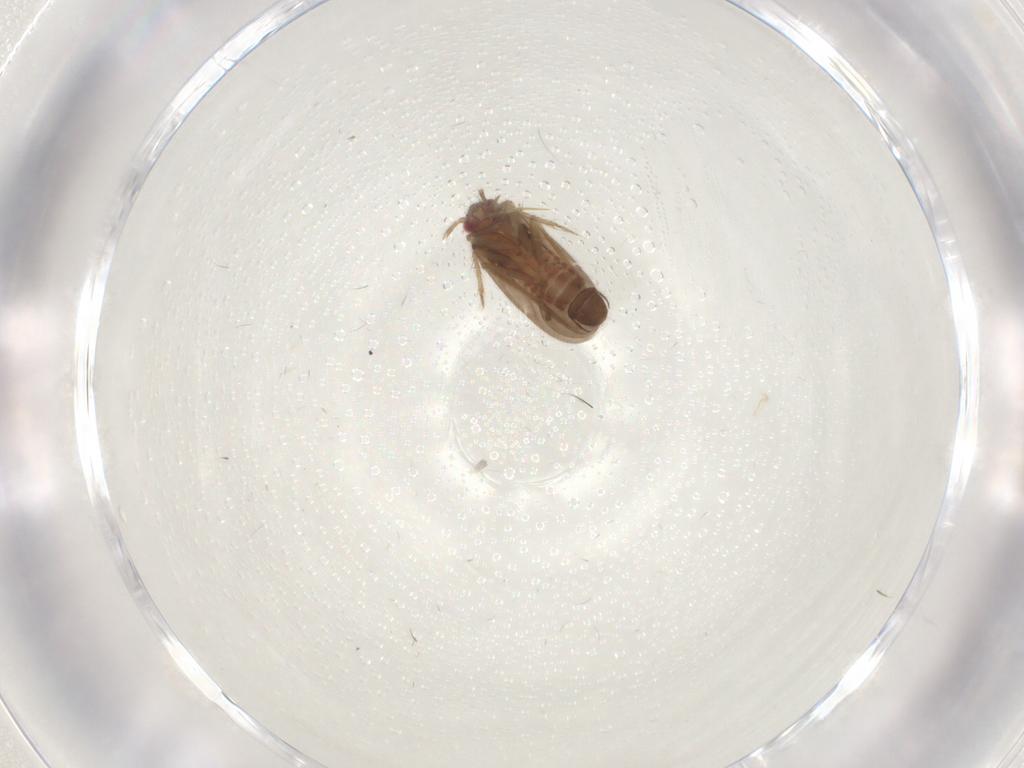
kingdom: Animalia
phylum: Arthropoda
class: Insecta
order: Hemiptera
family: Ceratocombidae
